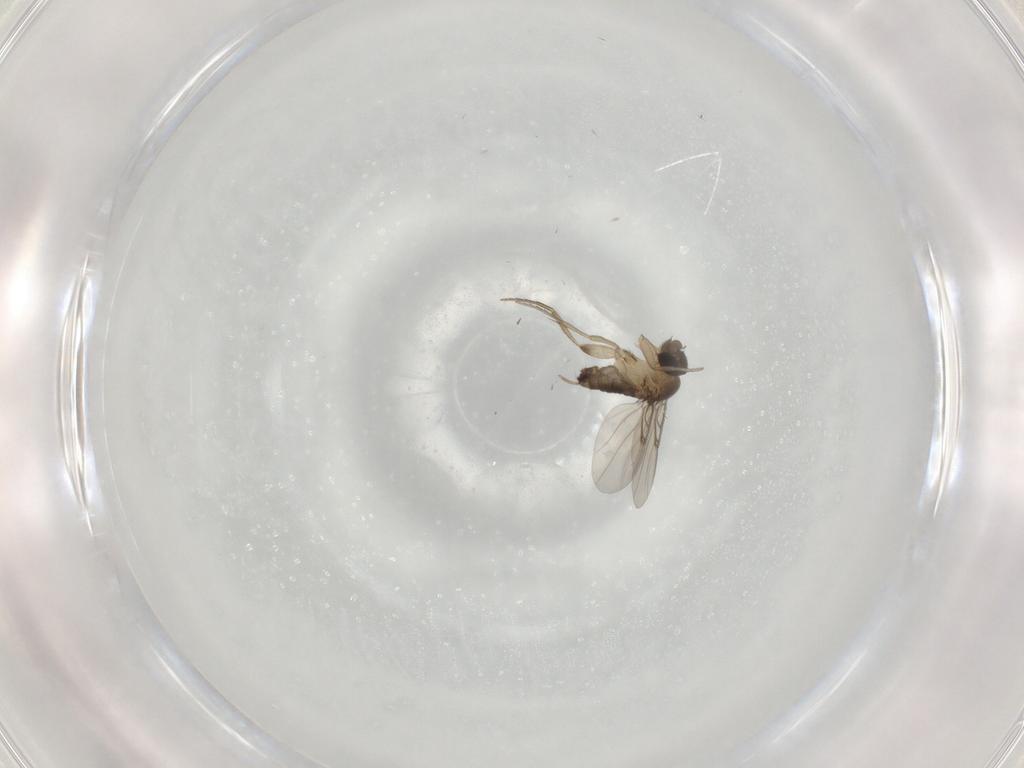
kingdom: Animalia
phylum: Arthropoda
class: Insecta
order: Diptera
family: Phoridae
